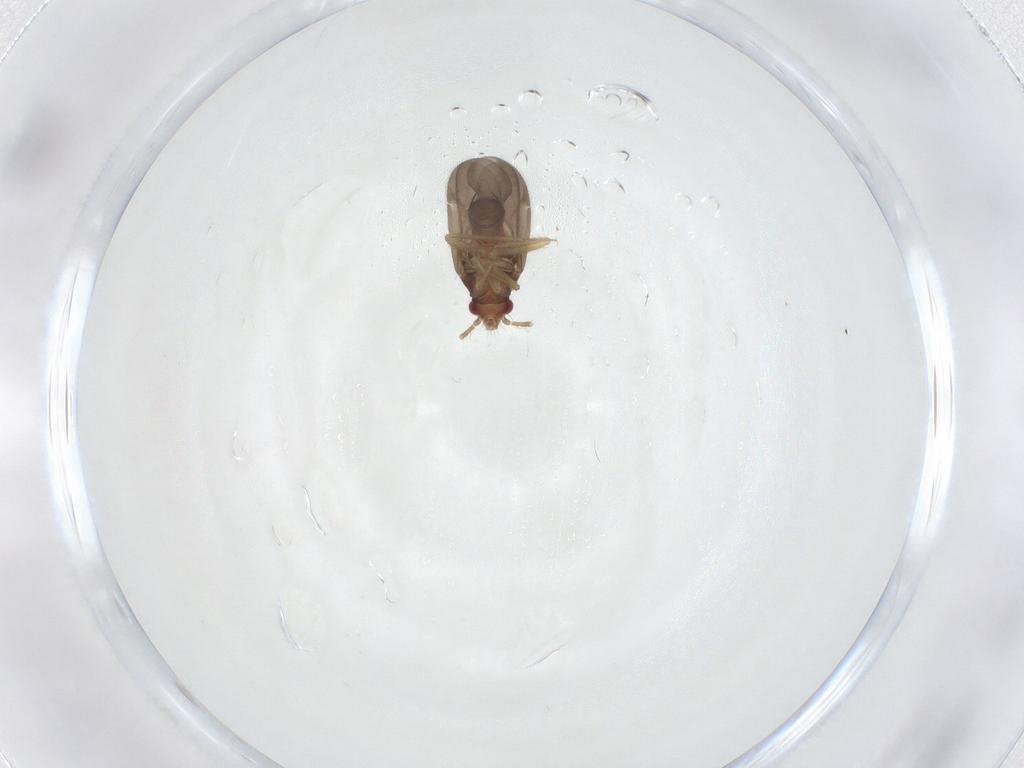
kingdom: Animalia
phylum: Arthropoda
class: Insecta
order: Hemiptera
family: Ceratocombidae
